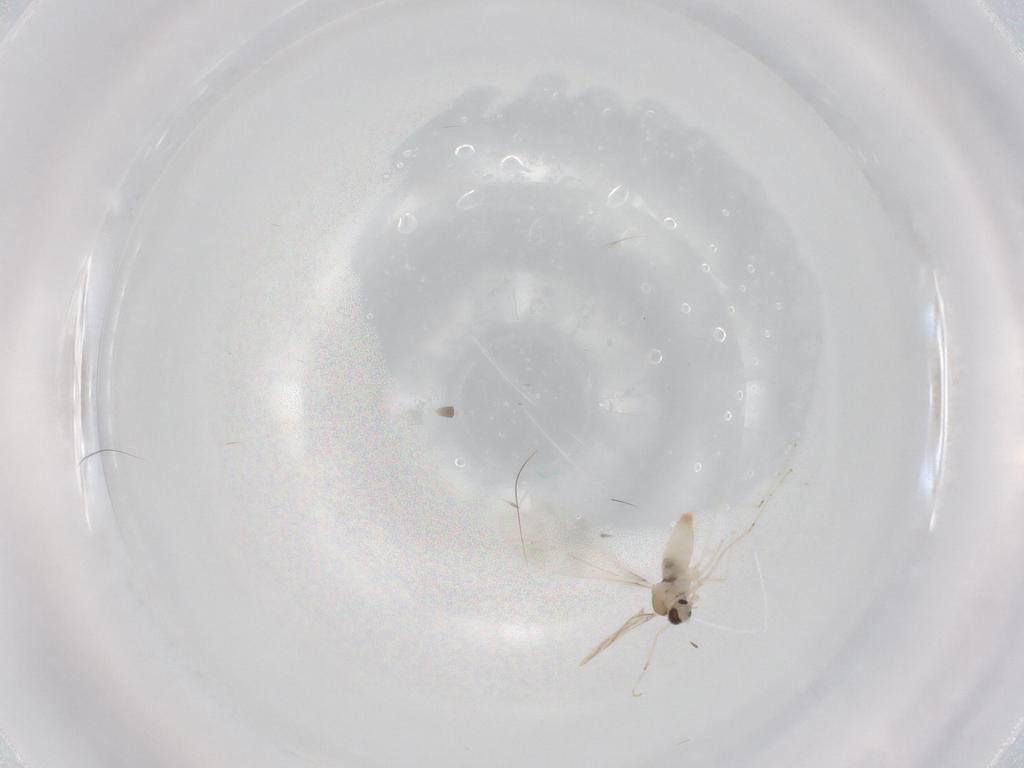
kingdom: Animalia
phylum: Arthropoda
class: Insecta
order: Diptera
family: Cecidomyiidae
